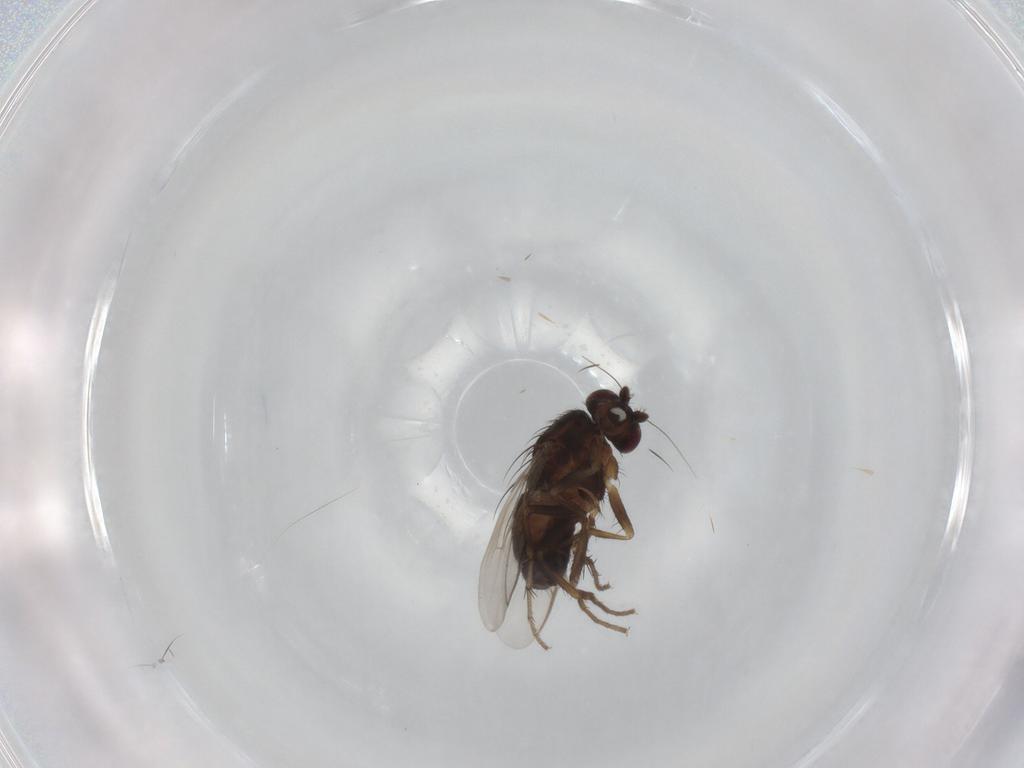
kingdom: Animalia
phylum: Arthropoda
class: Insecta
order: Diptera
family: Sphaeroceridae
